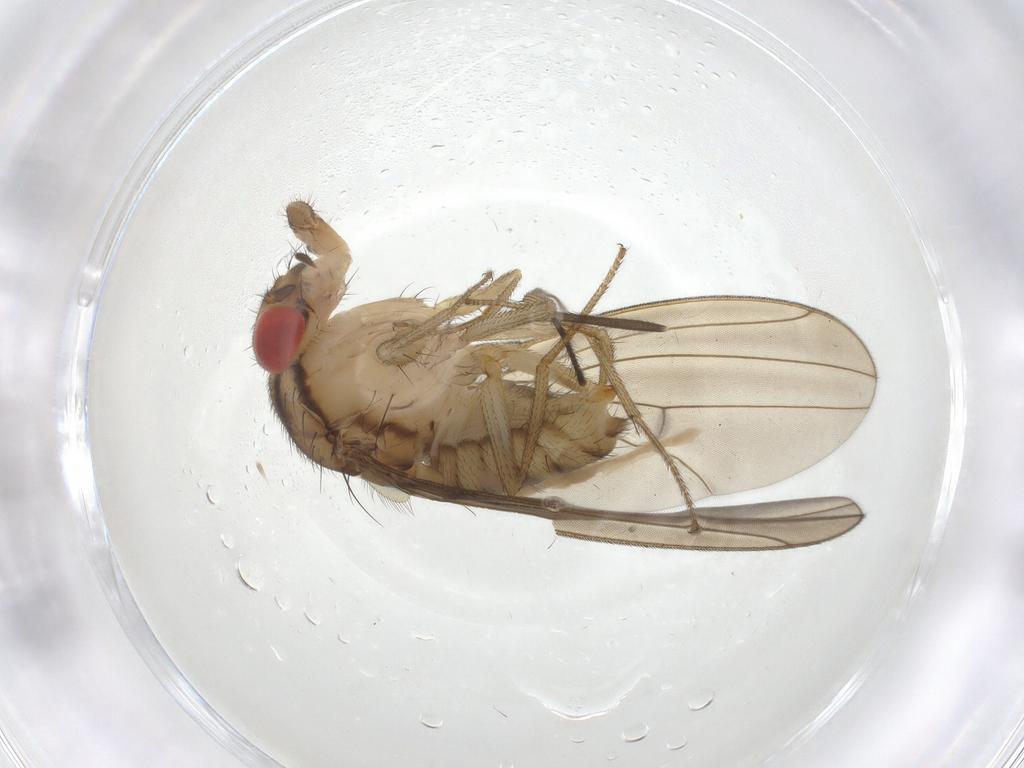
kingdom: Animalia
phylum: Arthropoda
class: Insecta
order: Diptera
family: Drosophilidae
